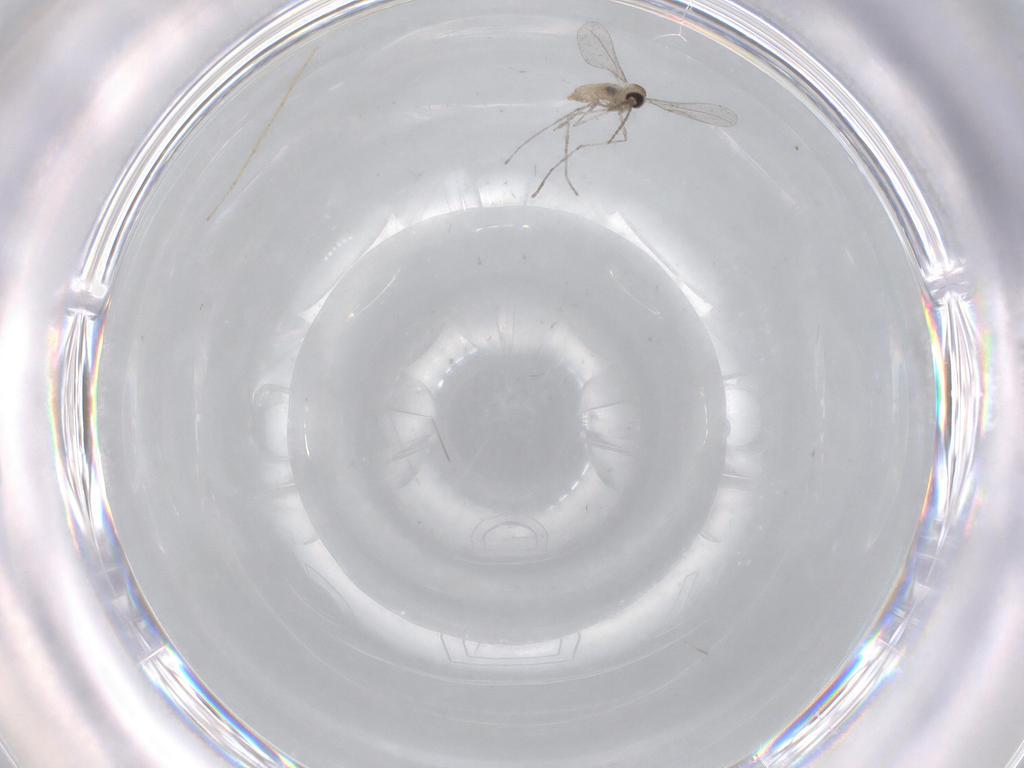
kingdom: Animalia
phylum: Arthropoda
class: Insecta
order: Diptera
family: Cecidomyiidae
